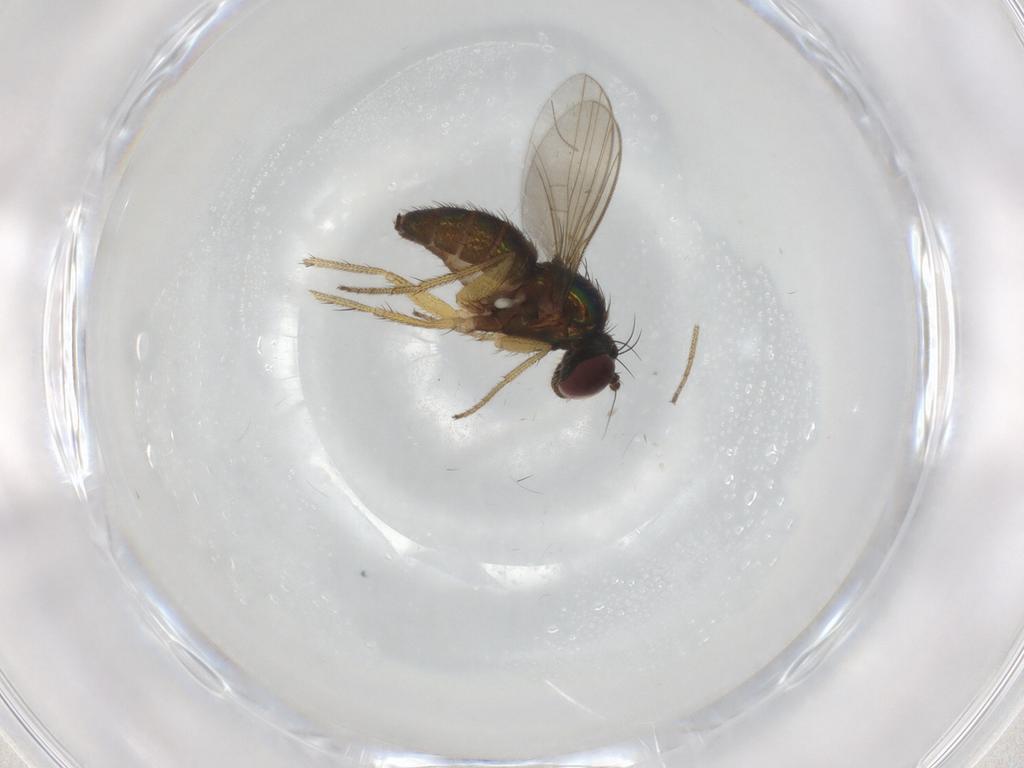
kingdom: Animalia
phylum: Arthropoda
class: Insecta
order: Diptera
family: Chironomidae
